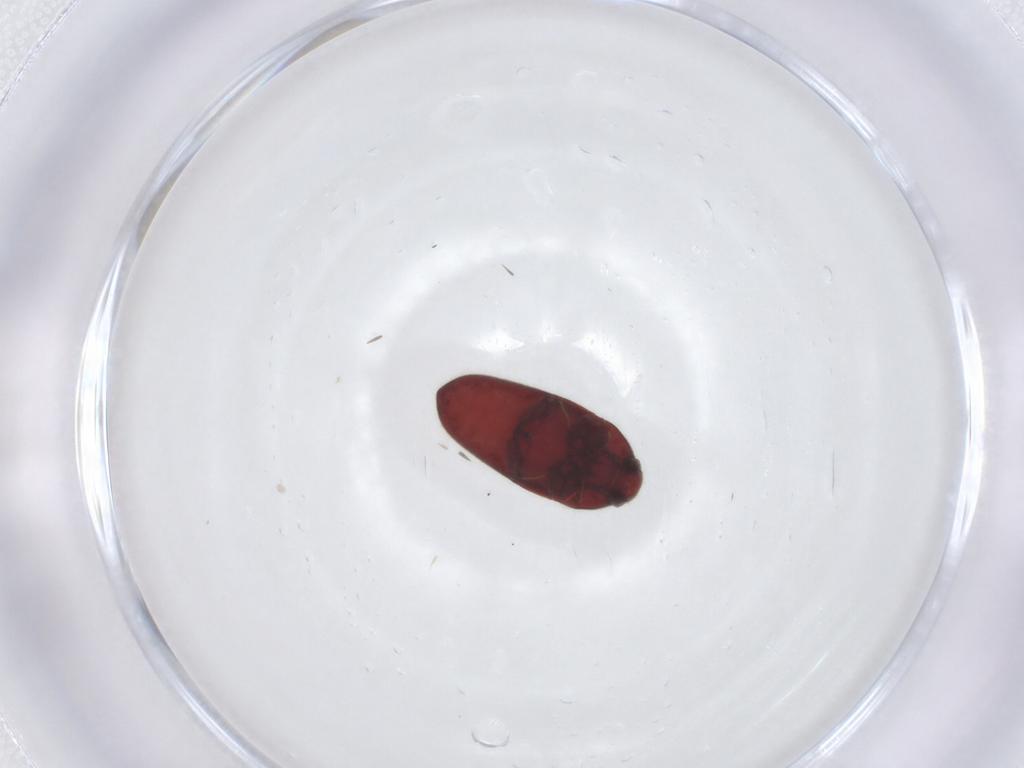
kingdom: Animalia
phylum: Arthropoda
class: Insecta
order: Coleoptera
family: Throscidae
